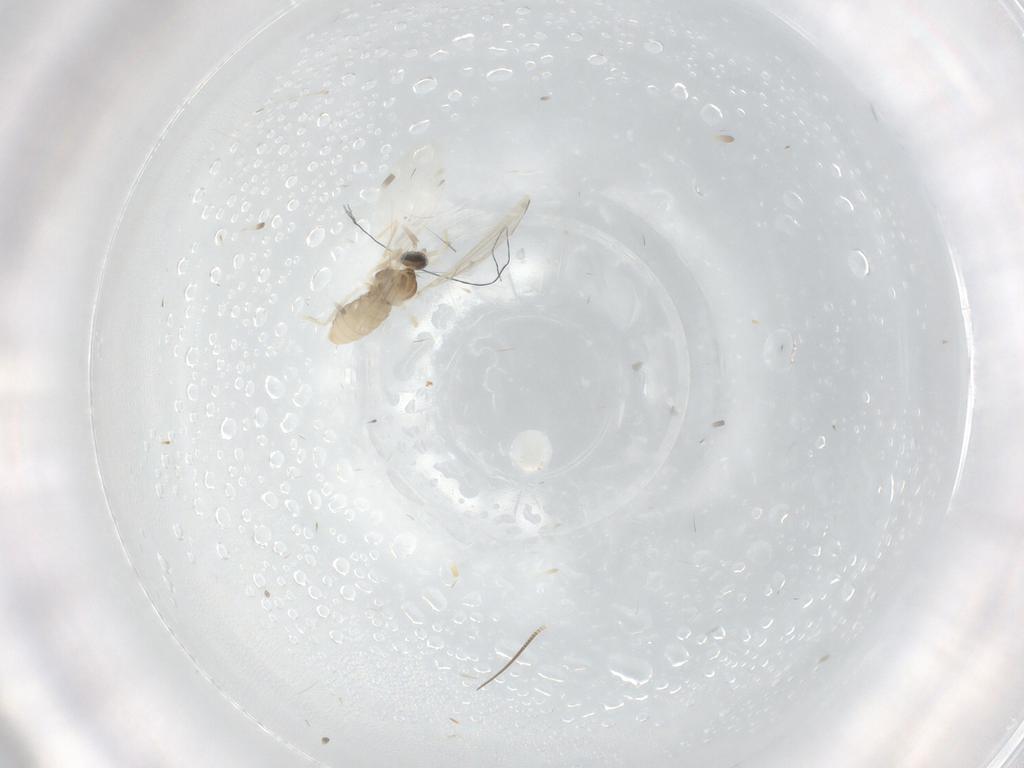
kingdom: Animalia
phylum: Arthropoda
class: Insecta
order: Diptera
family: Cecidomyiidae
